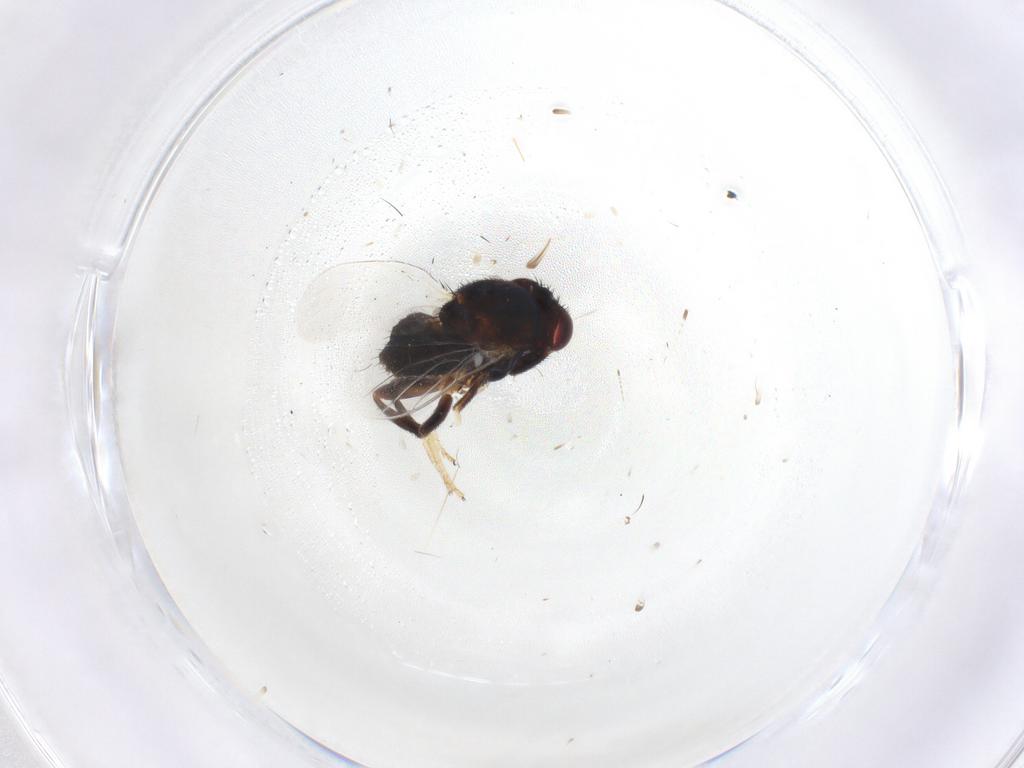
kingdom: Animalia
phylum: Arthropoda
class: Insecta
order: Diptera
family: Chloropidae
